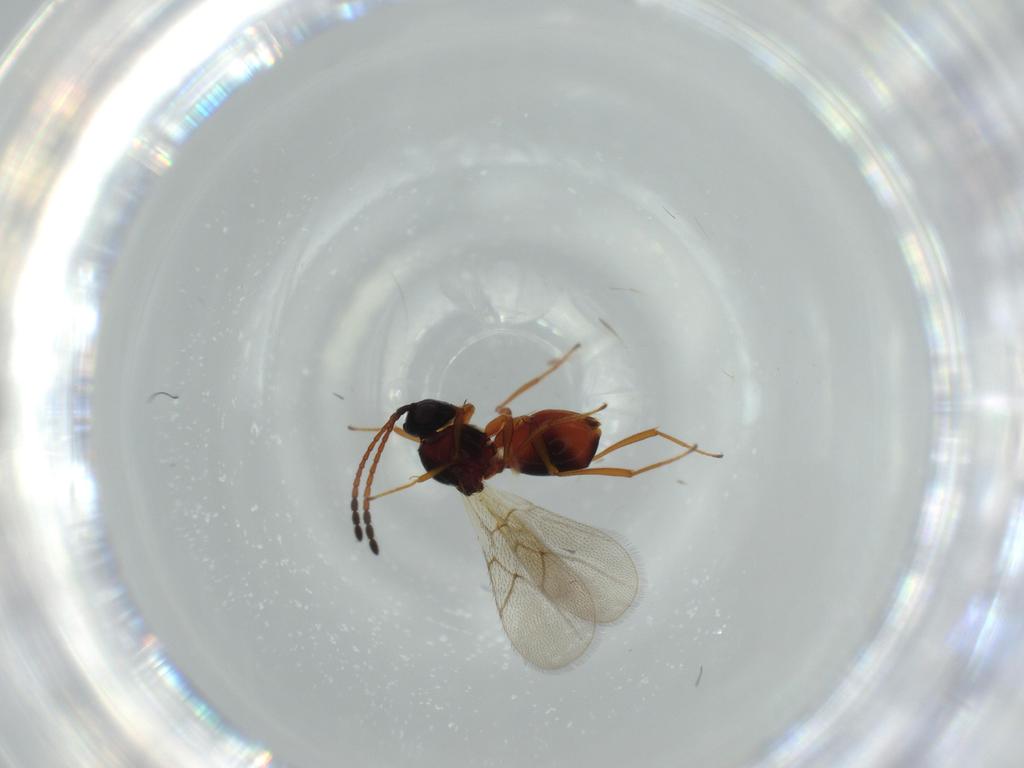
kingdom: Animalia
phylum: Arthropoda
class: Insecta
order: Hymenoptera
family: Figitidae
